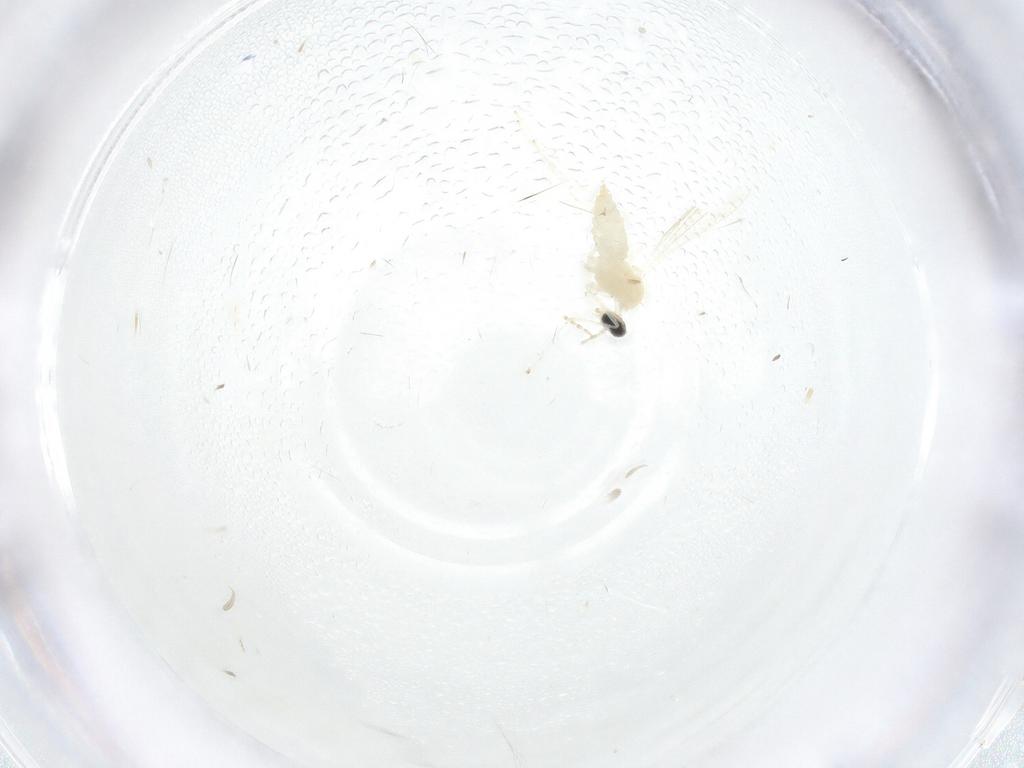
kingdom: Animalia
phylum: Arthropoda
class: Insecta
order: Diptera
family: Cecidomyiidae
